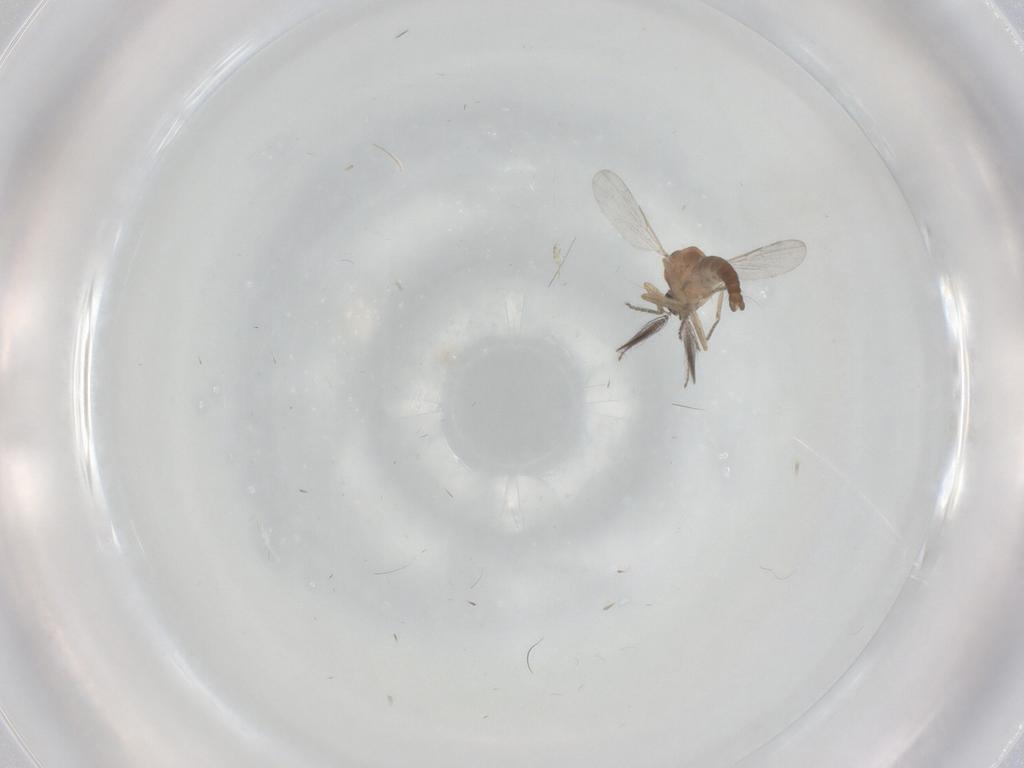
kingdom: Animalia
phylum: Arthropoda
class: Insecta
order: Diptera
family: Ceratopogonidae
